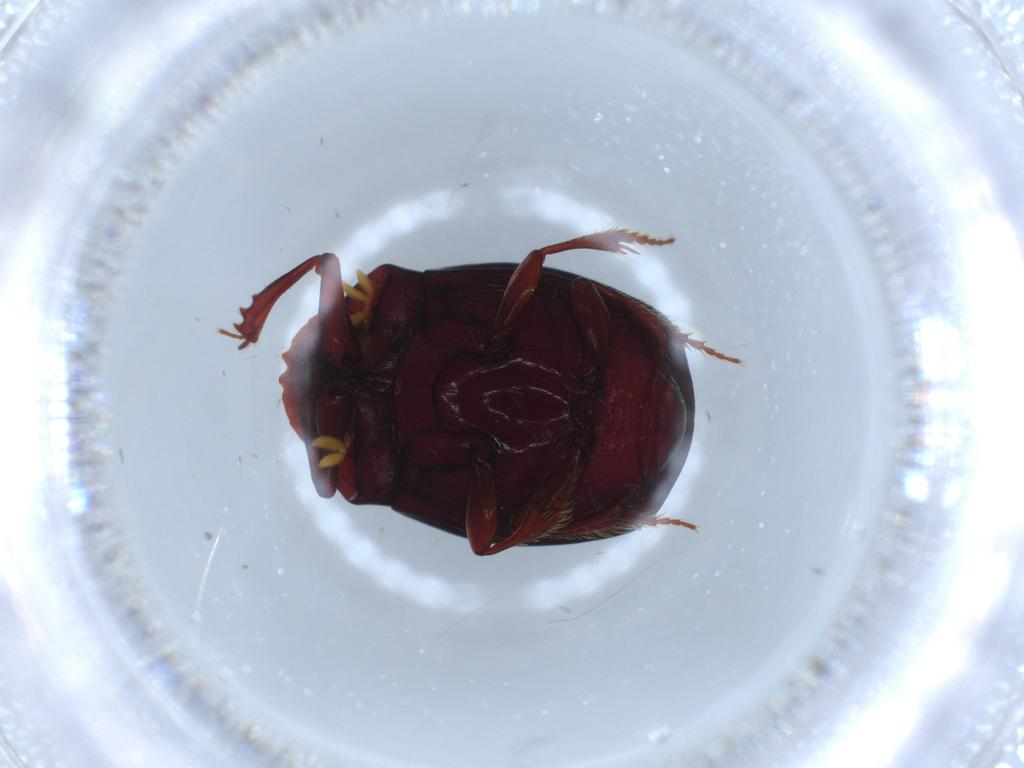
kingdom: Animalia
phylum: Arthropoda
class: Insecta
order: Coleoptera
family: Scarabaeidae
